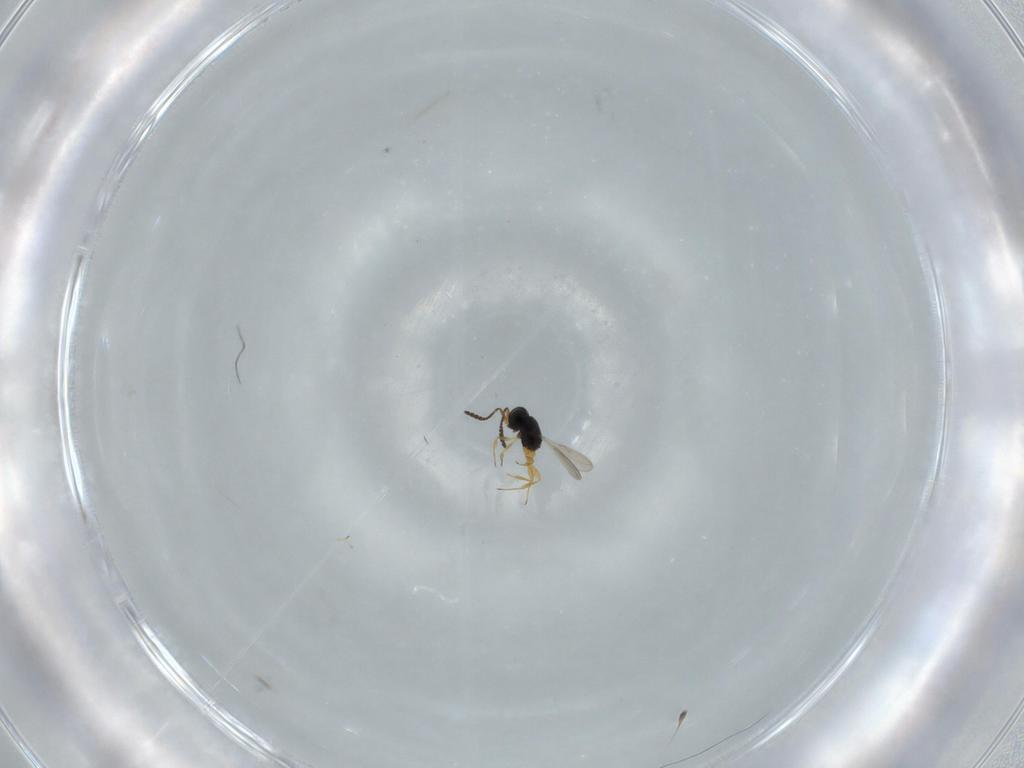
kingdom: Animalia
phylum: Arthropoda
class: Insecta
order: Hymenoptera
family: Scelionidae
